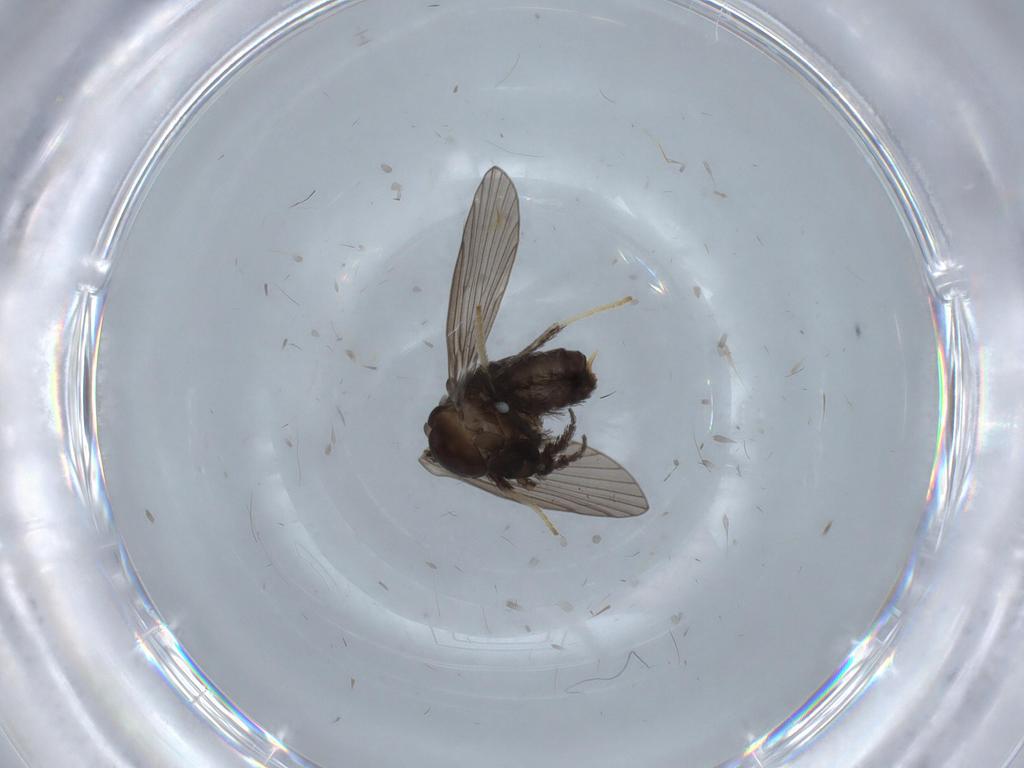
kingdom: Animalia
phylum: Arthropoda
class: Insecta
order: Diptera
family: Psychodidae
